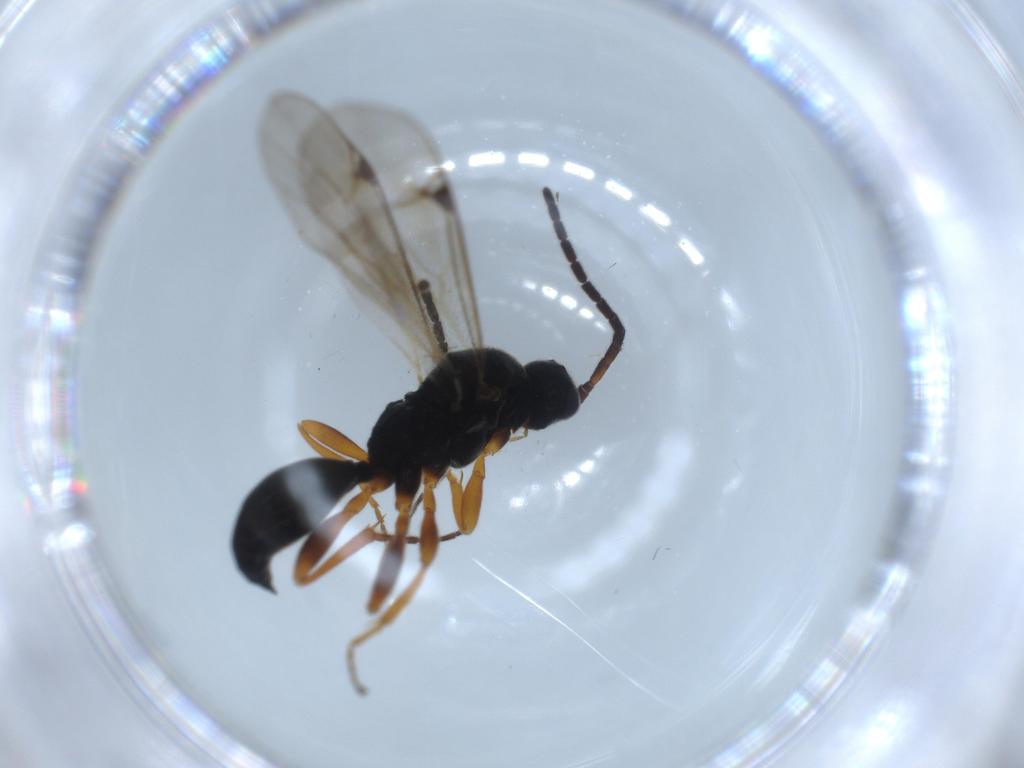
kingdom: Animalia
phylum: Arthropoda
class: Insecta
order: Hymenoptera
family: Proctotrupidae
